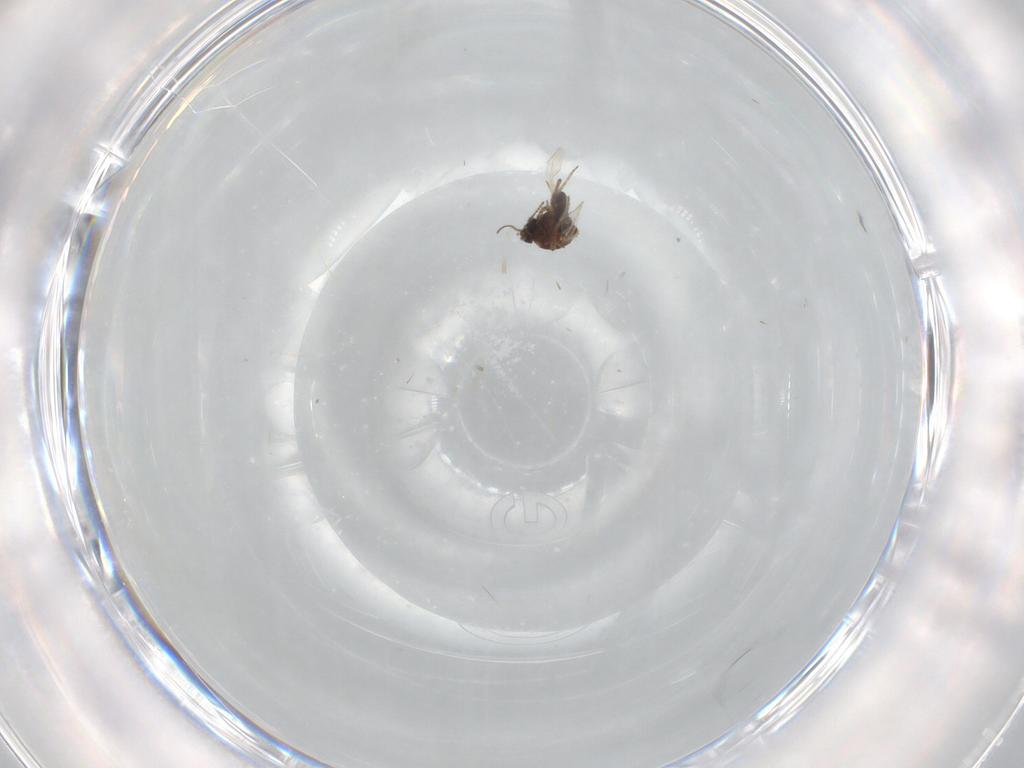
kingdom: Animalia
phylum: Arthropoda
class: Insecta
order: Diptera
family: Ceratopogonidae
